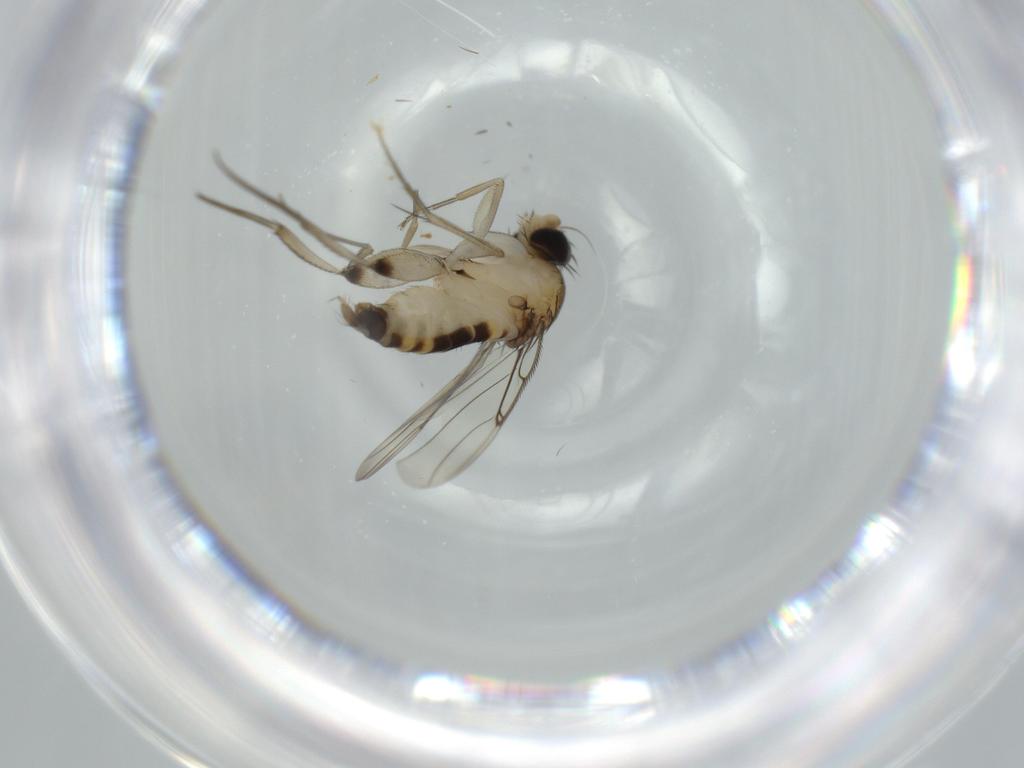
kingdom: Animalia
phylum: Arthropoda
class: Insecta
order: Diptera
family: Phoridae
